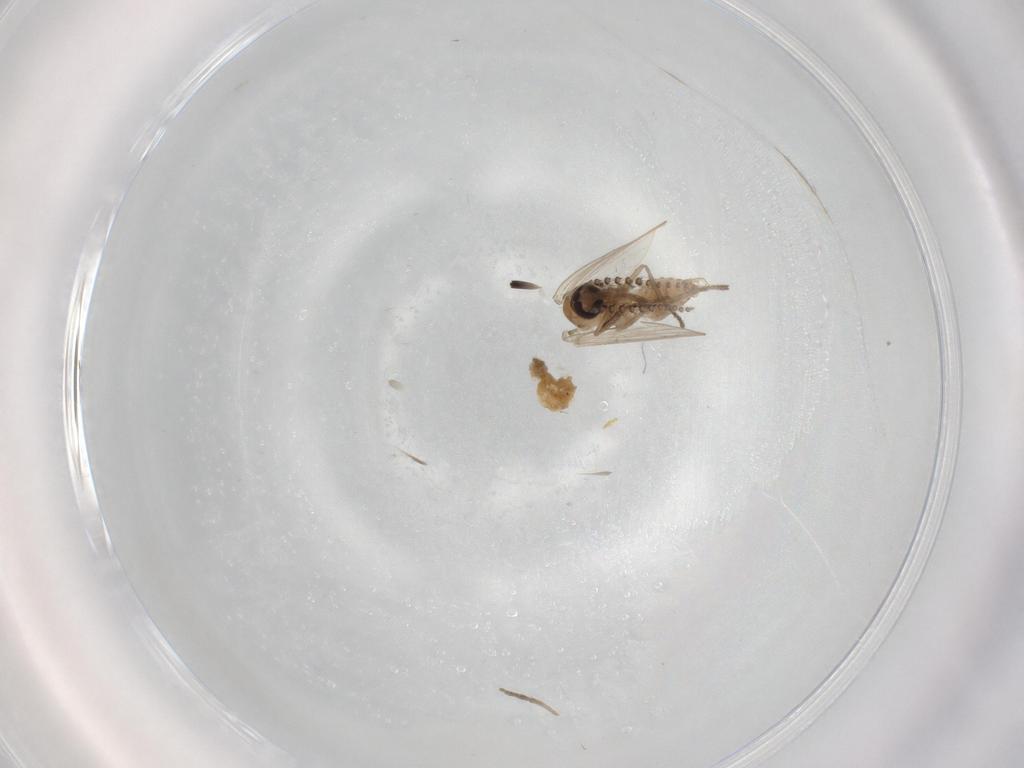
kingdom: Animalia
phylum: Arthropoda
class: Insecta
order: Diptera
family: Psychodidae
